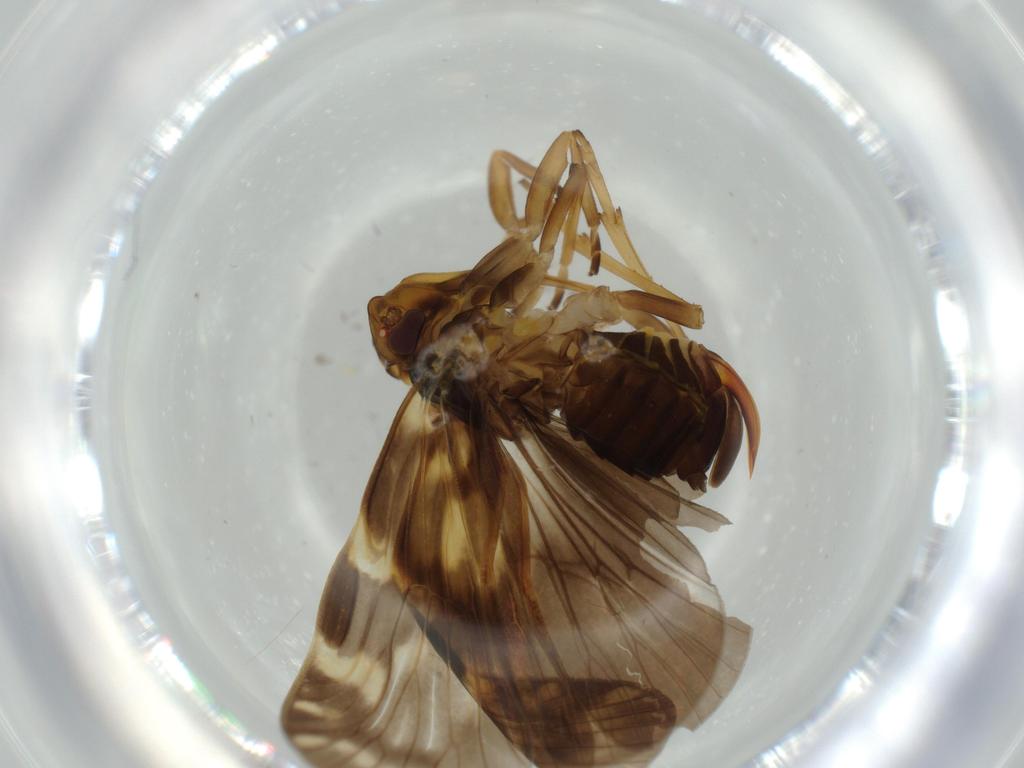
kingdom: Animalia
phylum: Arthropoda
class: Insecta
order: Hemiptera
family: Cixiidae
